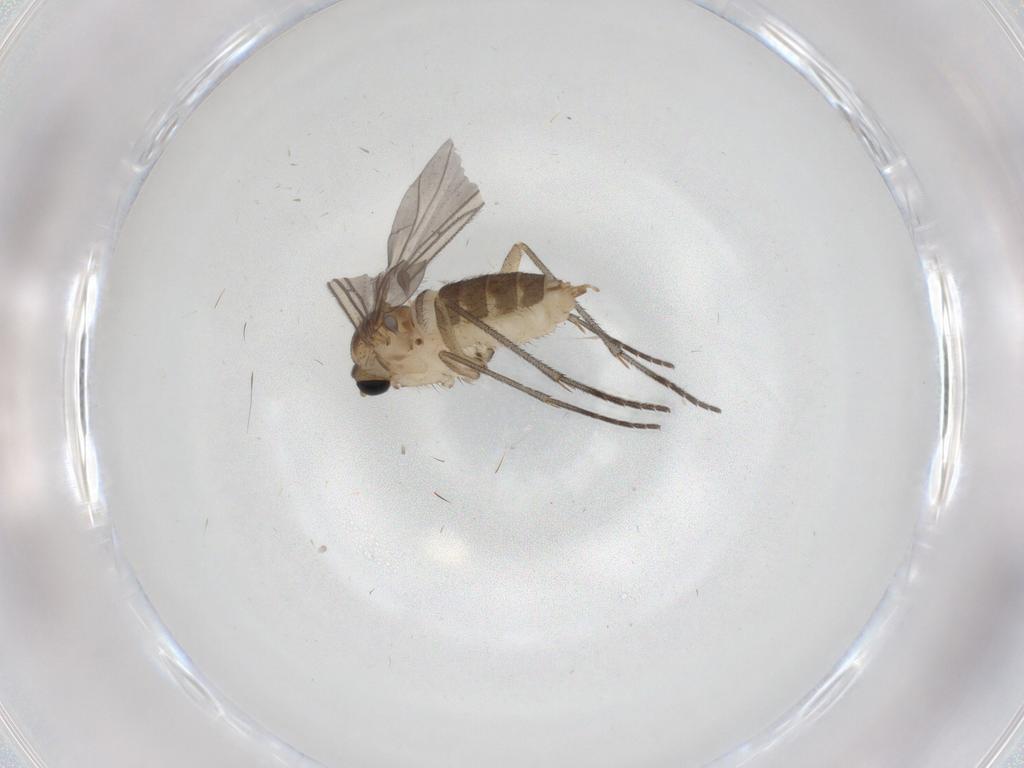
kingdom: Animalia
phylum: Arthropoda
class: Insecta
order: Diptera
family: Sciaridae
